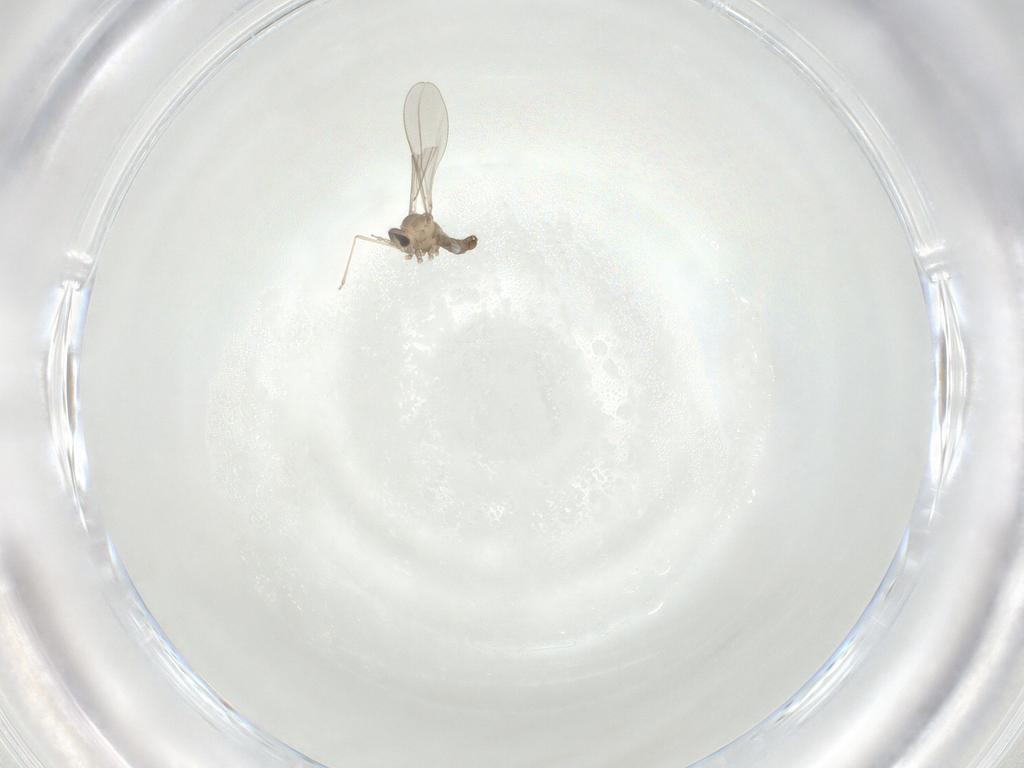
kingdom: Animalia
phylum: Arthropoda
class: Insecta
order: Diptera
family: Cecidomyiidae
